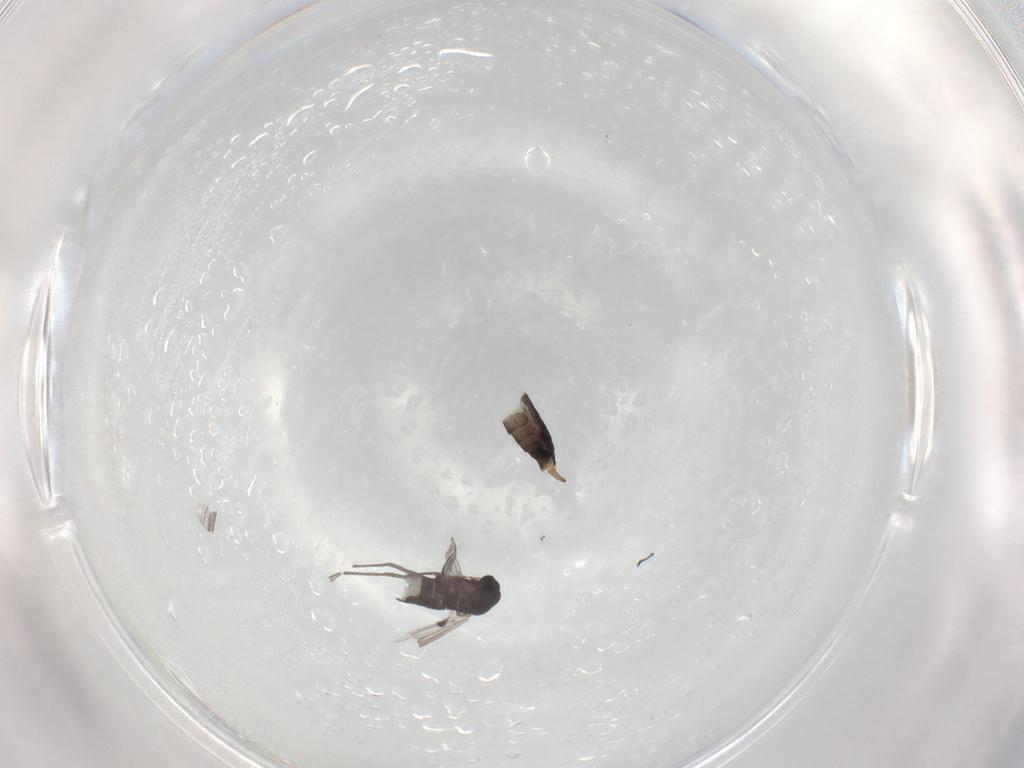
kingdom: Animalia
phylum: Arthropoda
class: Insecta
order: Diptera
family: Chironomidae
